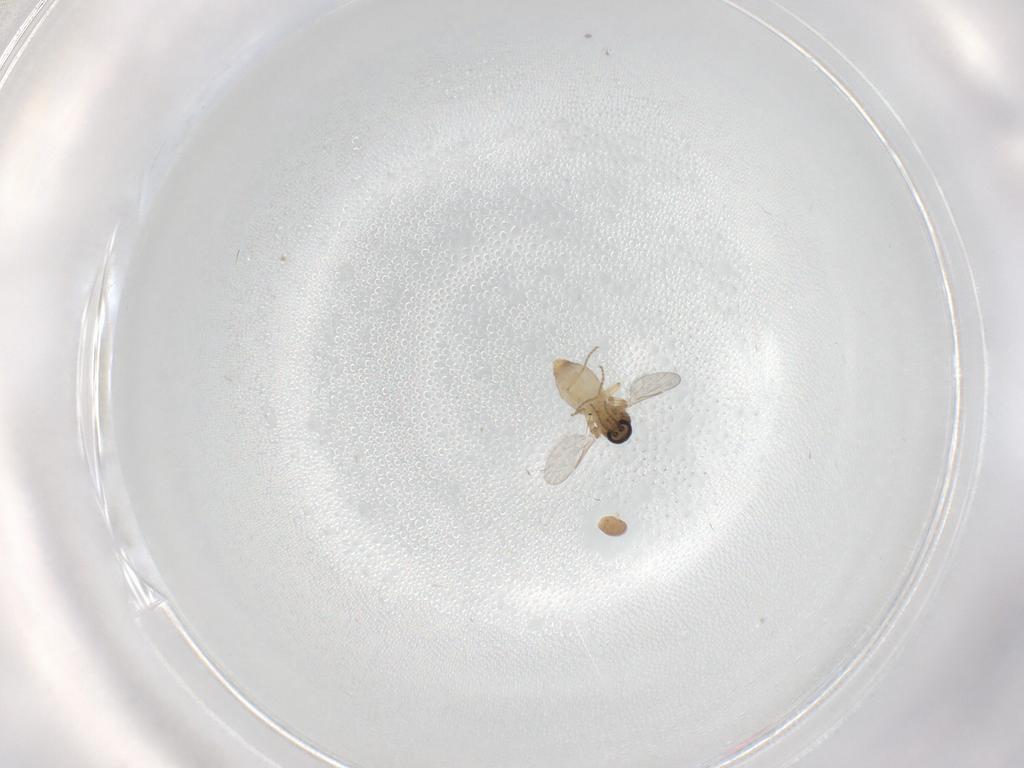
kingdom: Animalia
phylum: Arthropoda
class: Insecta
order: Diptera
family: Ceratopogonidae
